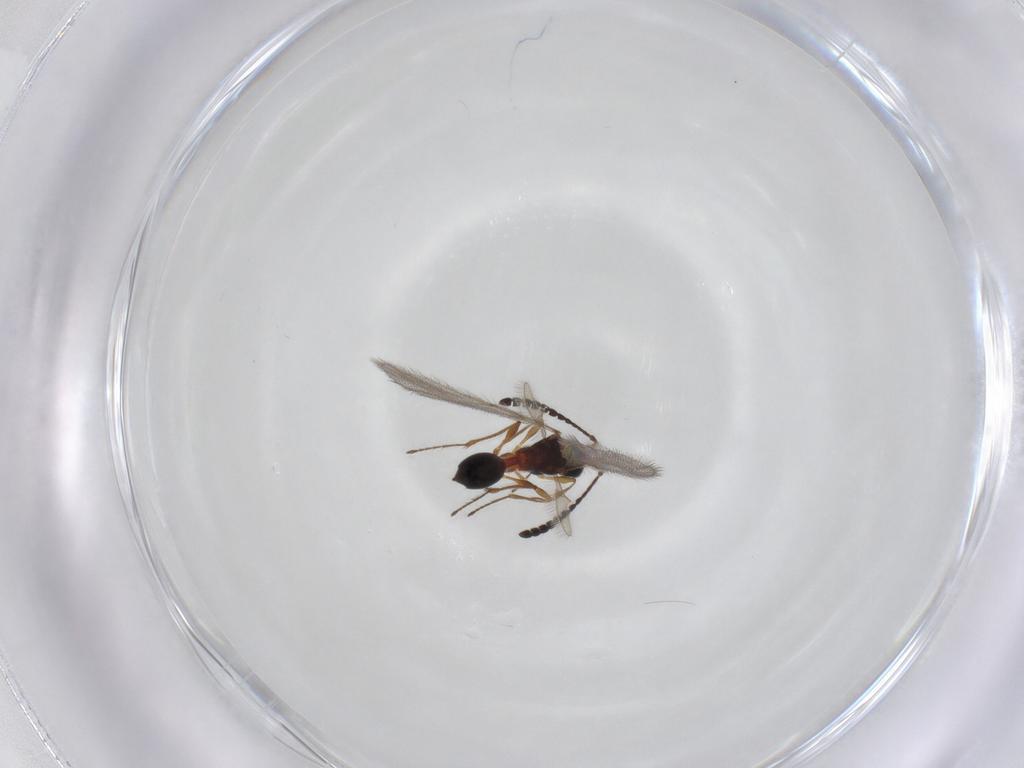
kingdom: Animalia
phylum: Arthropoda
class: Insecta
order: Hymenoptera
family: Diapriidae
